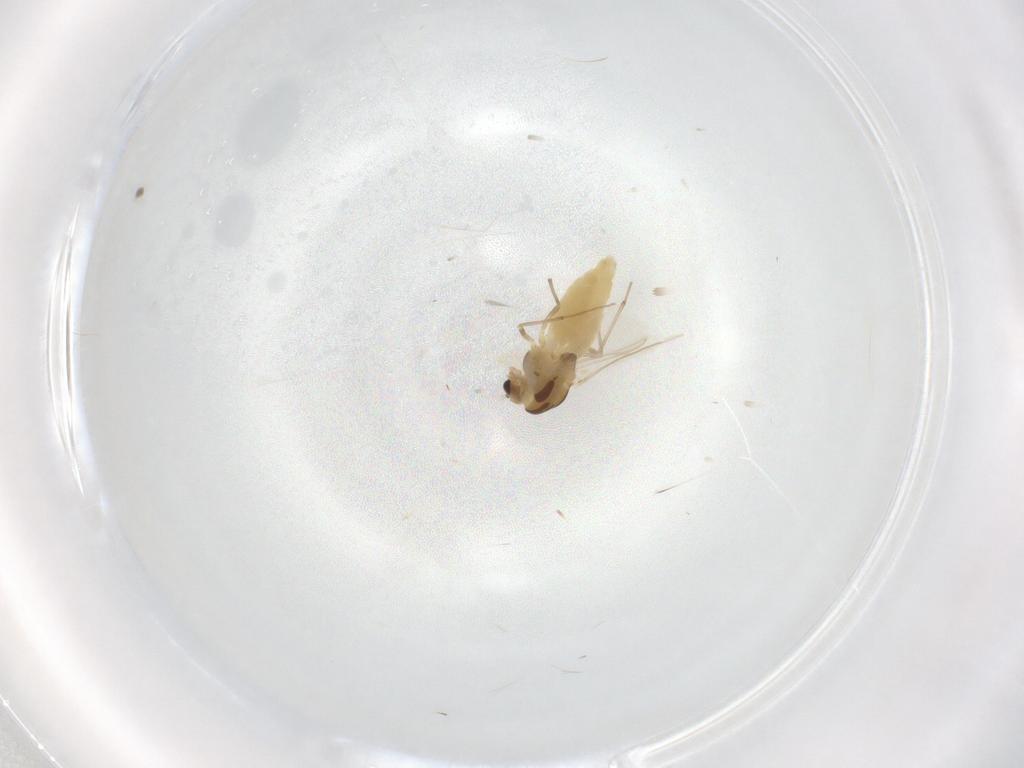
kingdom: Animalia
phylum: Arthropoda
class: Insecta
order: Diptera
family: Chironomidae
